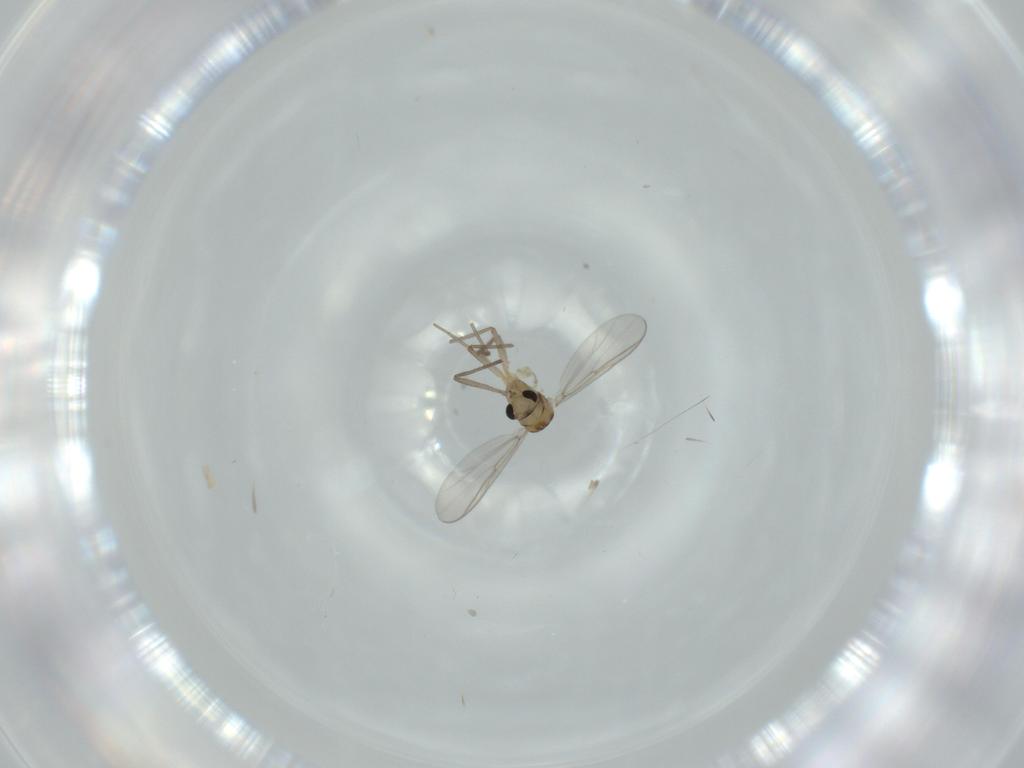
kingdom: Animalia
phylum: Arthropoda
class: Insecta
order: Diptera
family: Chironomidae
